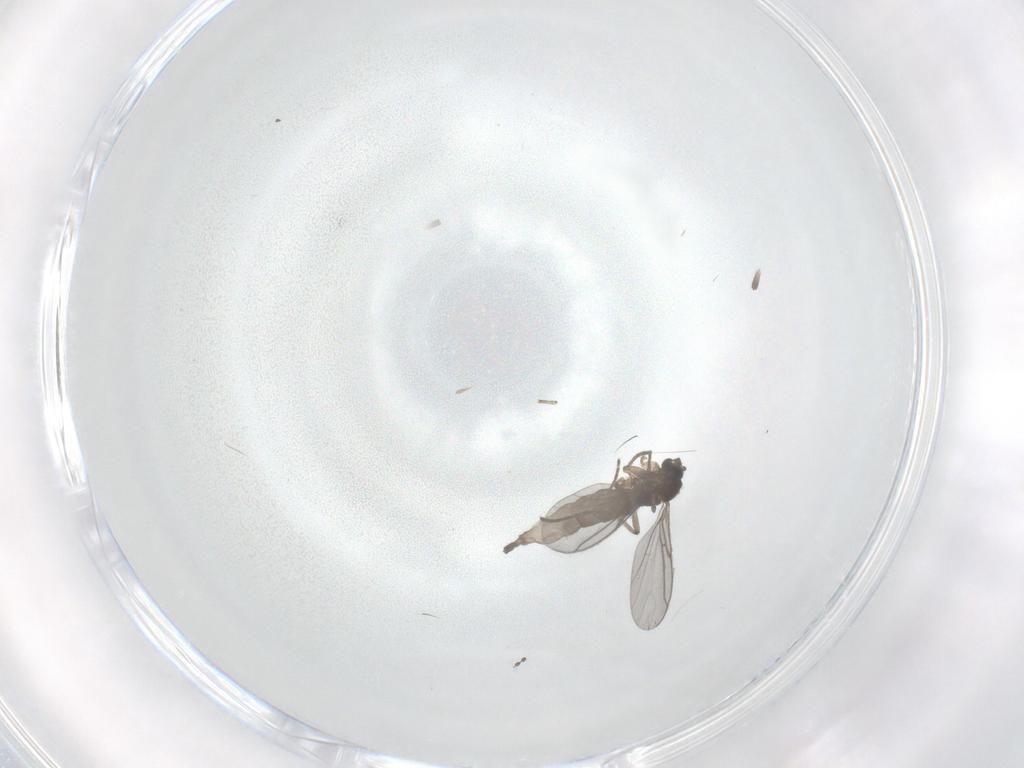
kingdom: Animalia
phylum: Arthropoda
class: Insecta
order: Diptera
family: Sciaridae
